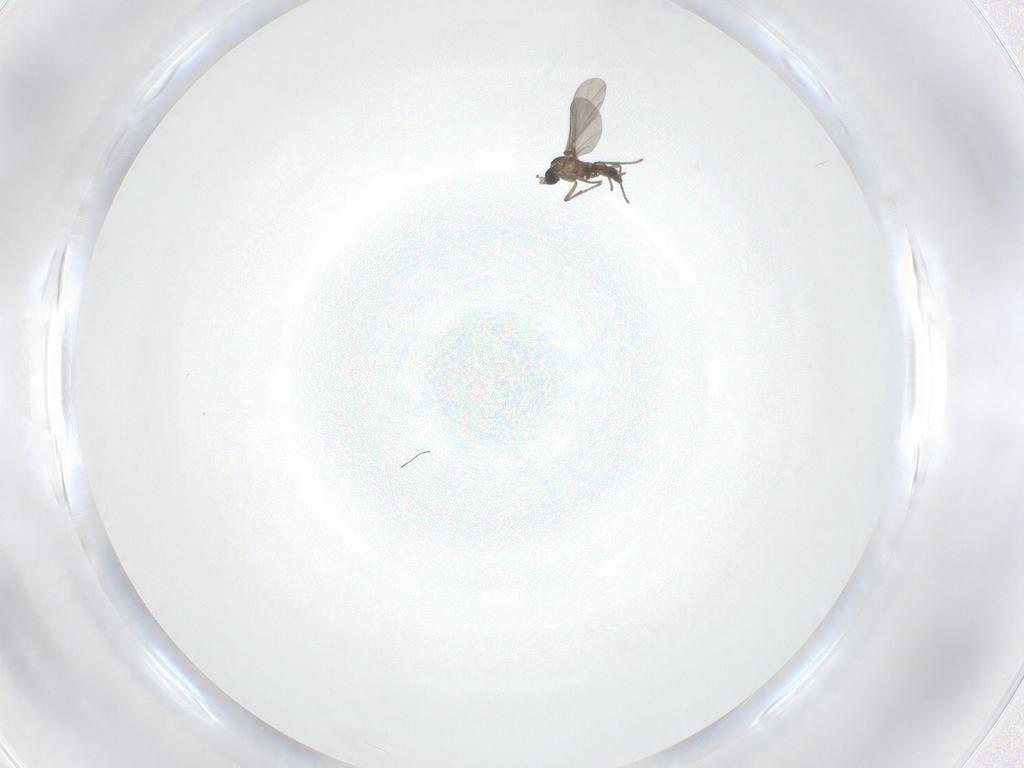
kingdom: Animalia
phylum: Arthropoda
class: Insecta
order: Diptera
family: Sciaridae
